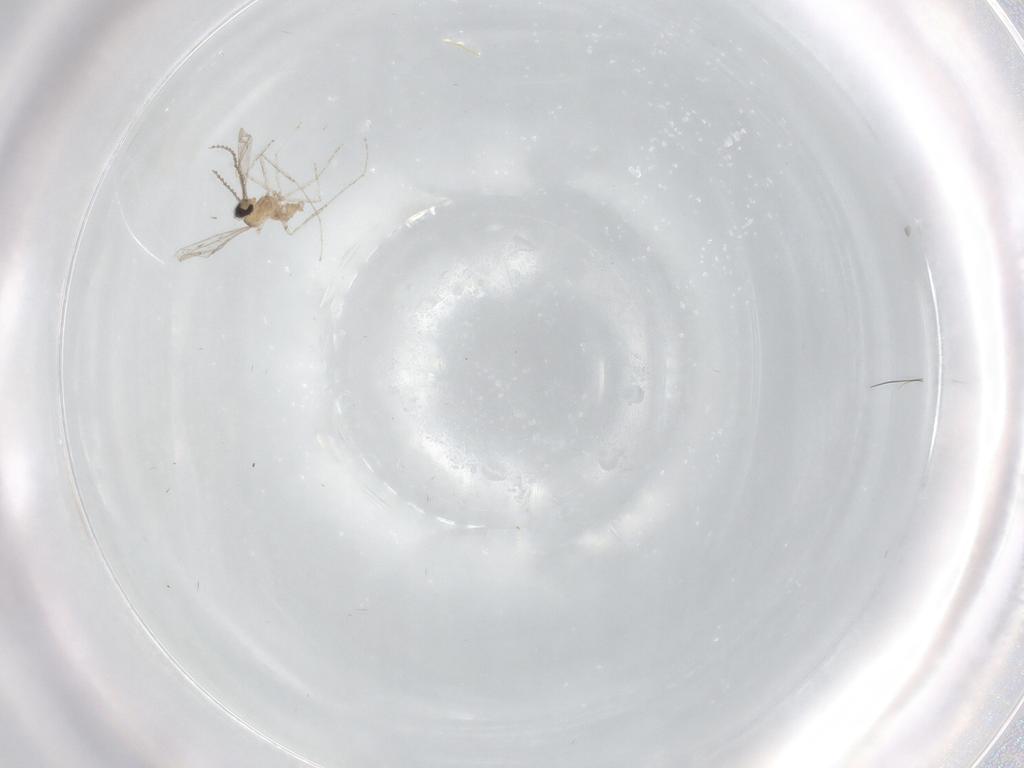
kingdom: Animalia
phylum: Arthropoda
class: Insecta
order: Diptera
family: Cecidomyiidae
